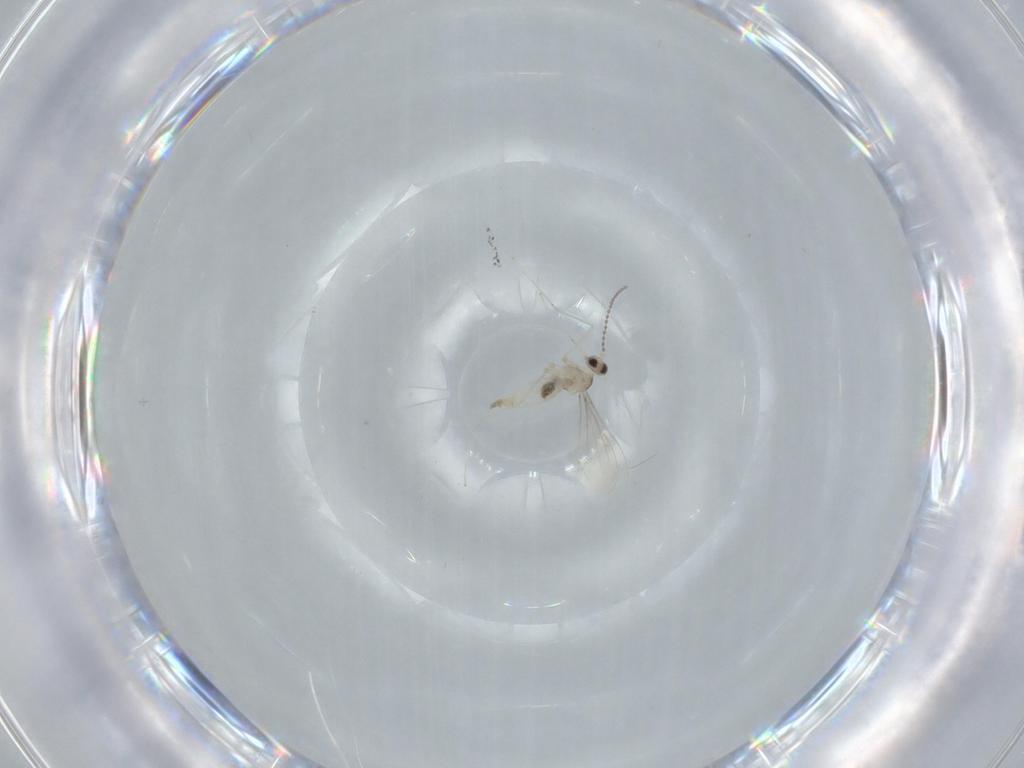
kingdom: Animalia
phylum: Arthropoda
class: Insecta
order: Diptera
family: Cecidomyiidae
